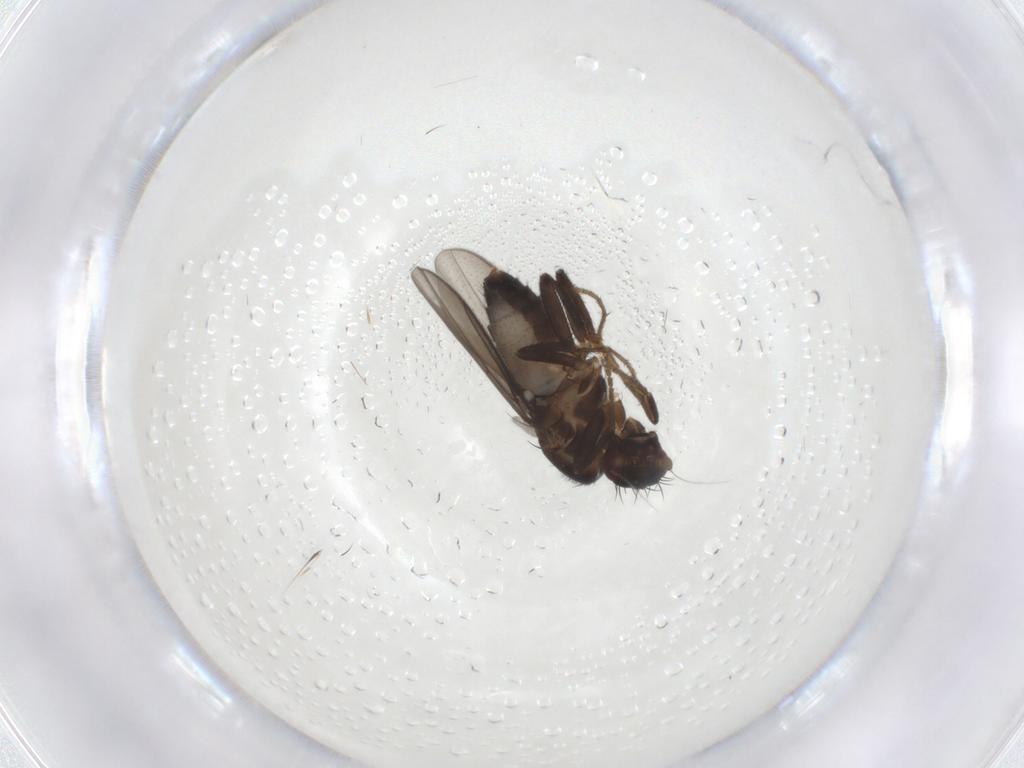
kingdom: Animalia
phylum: Arthropoda
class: Insecta
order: Diptera
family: Sphaeroceridae
